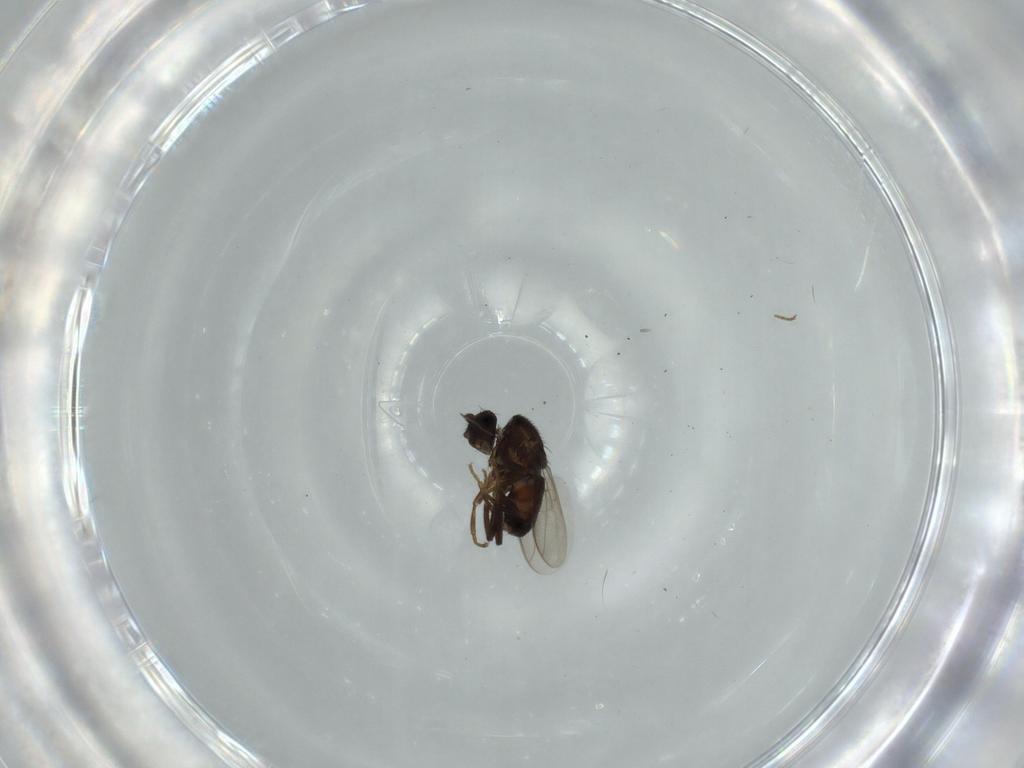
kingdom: Animalia
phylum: Arthropoda
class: Insecta
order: Diptera
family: Sphaeroceridae
